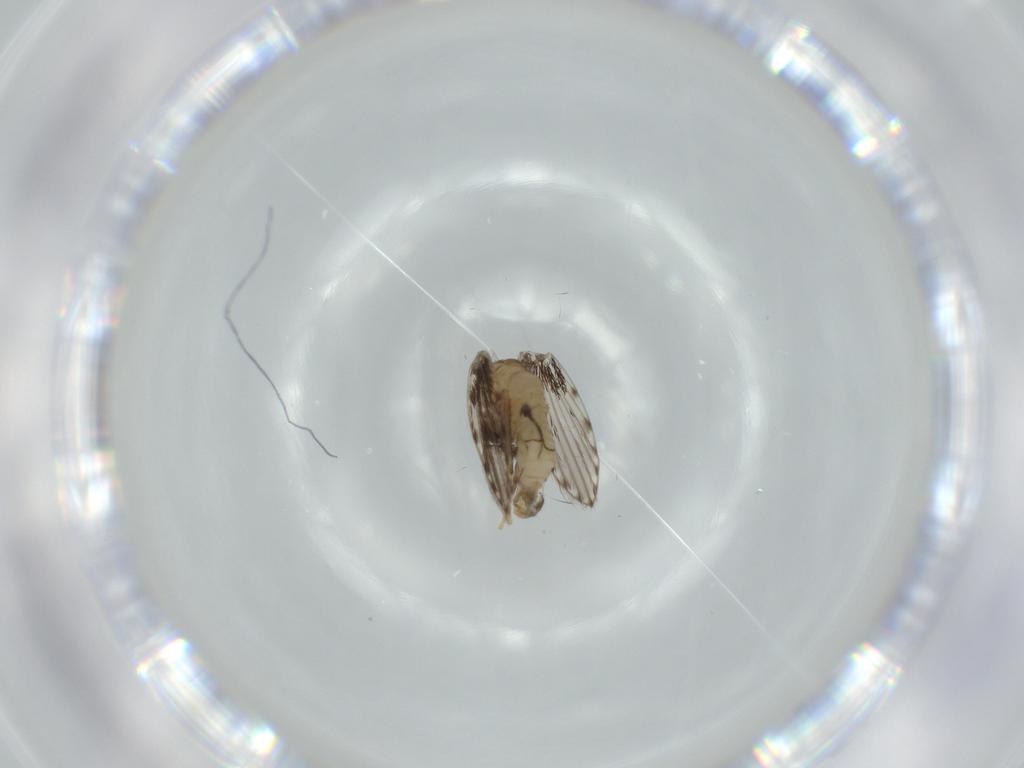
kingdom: Animalia
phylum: Arthropoda
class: Insecta
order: Diptera
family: Psychodidae
